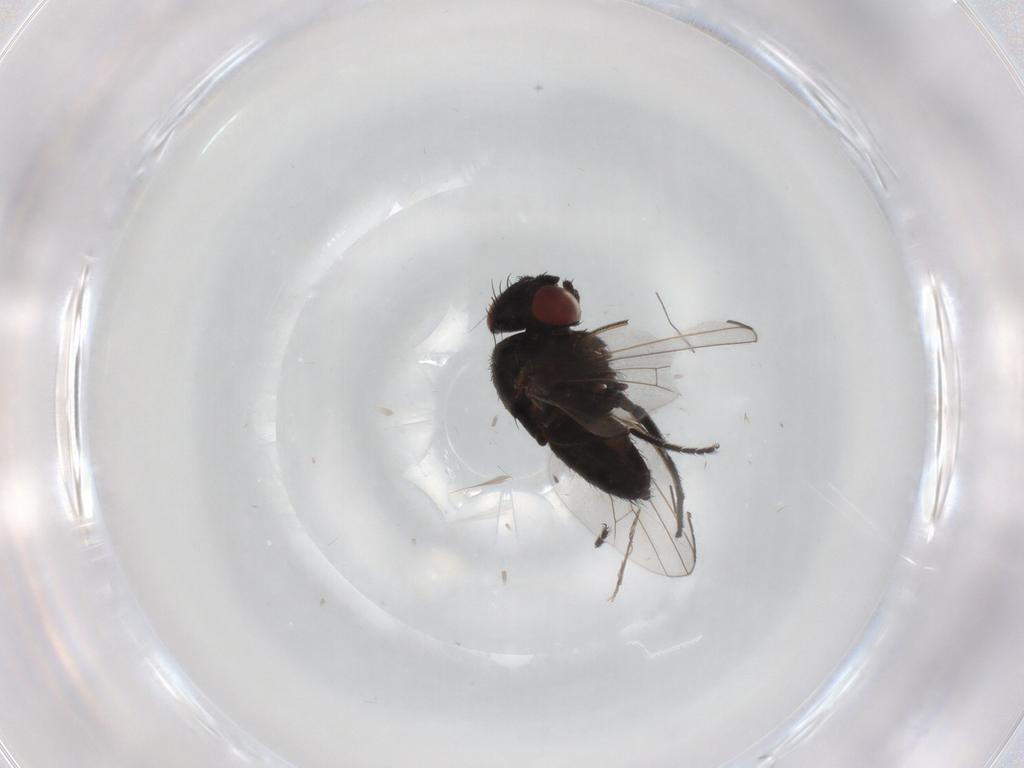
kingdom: Animalia
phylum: Arthropoda
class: Insecta
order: Diptera
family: Milichiidae
